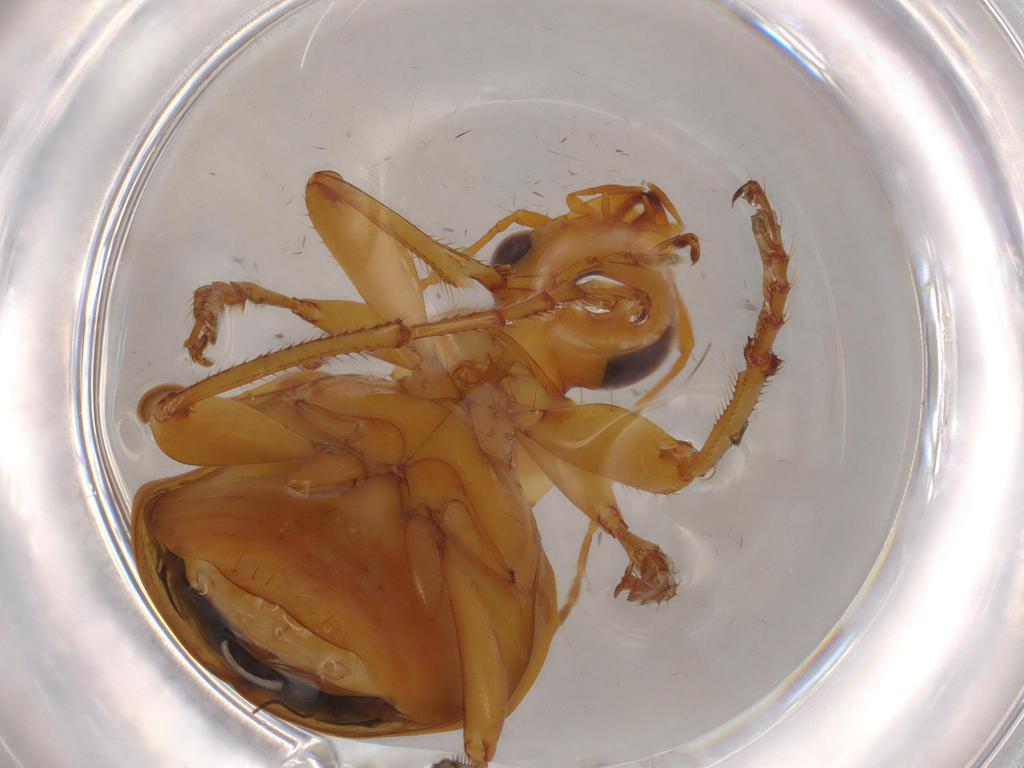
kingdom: Animalia
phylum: Arthropoda
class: Insecta
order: Coleoptera
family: Carabidae
